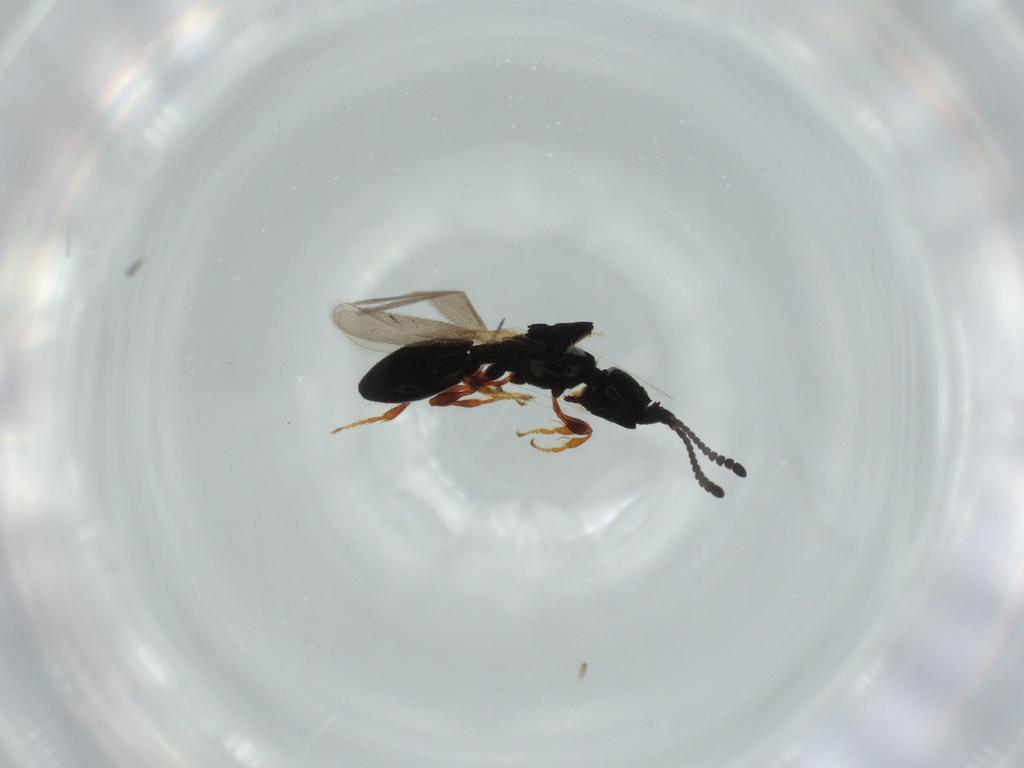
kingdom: Animalia
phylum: Arthropoda
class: Insecta
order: Hymenoptera
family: Diapriidae
